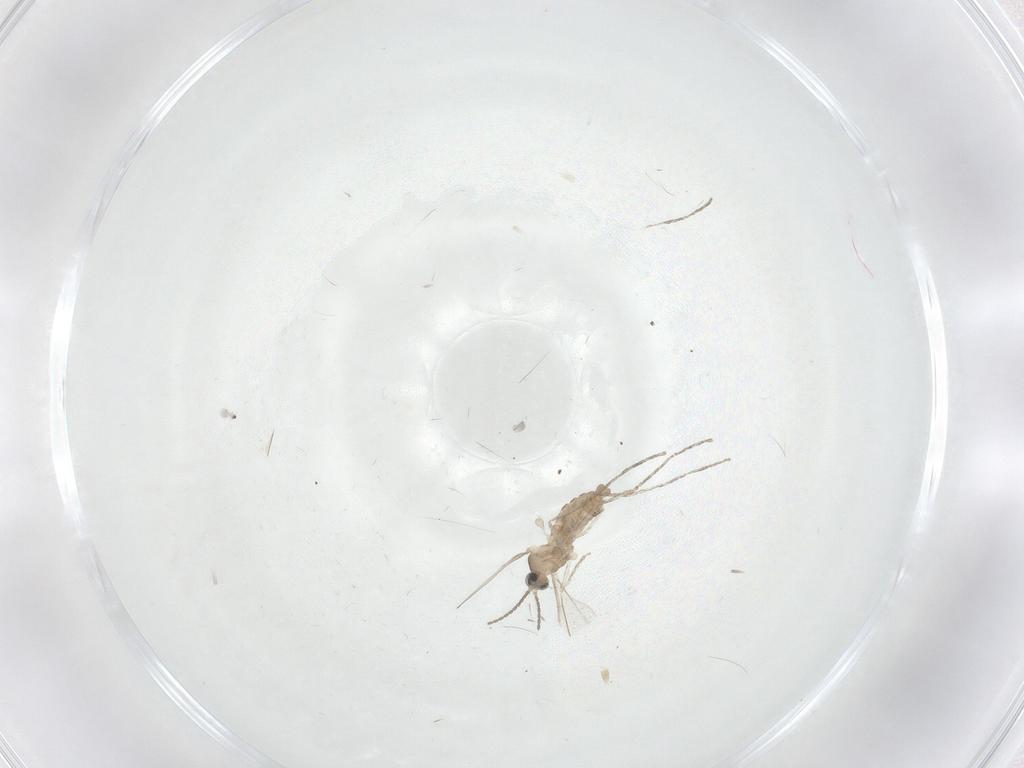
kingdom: Animalia
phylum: Arthropoda
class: Insecta
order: Diptera
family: Cecidomyiidae
